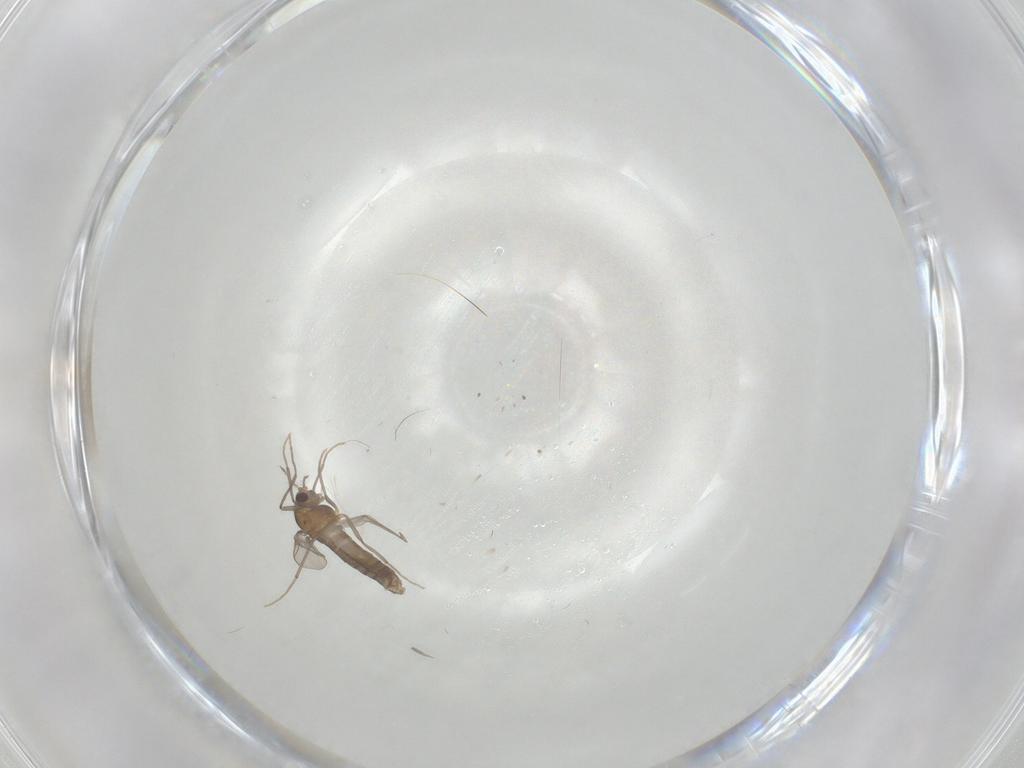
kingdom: Animalia
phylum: Arthropoda
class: Insecta
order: Diptera
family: Chironomidae
